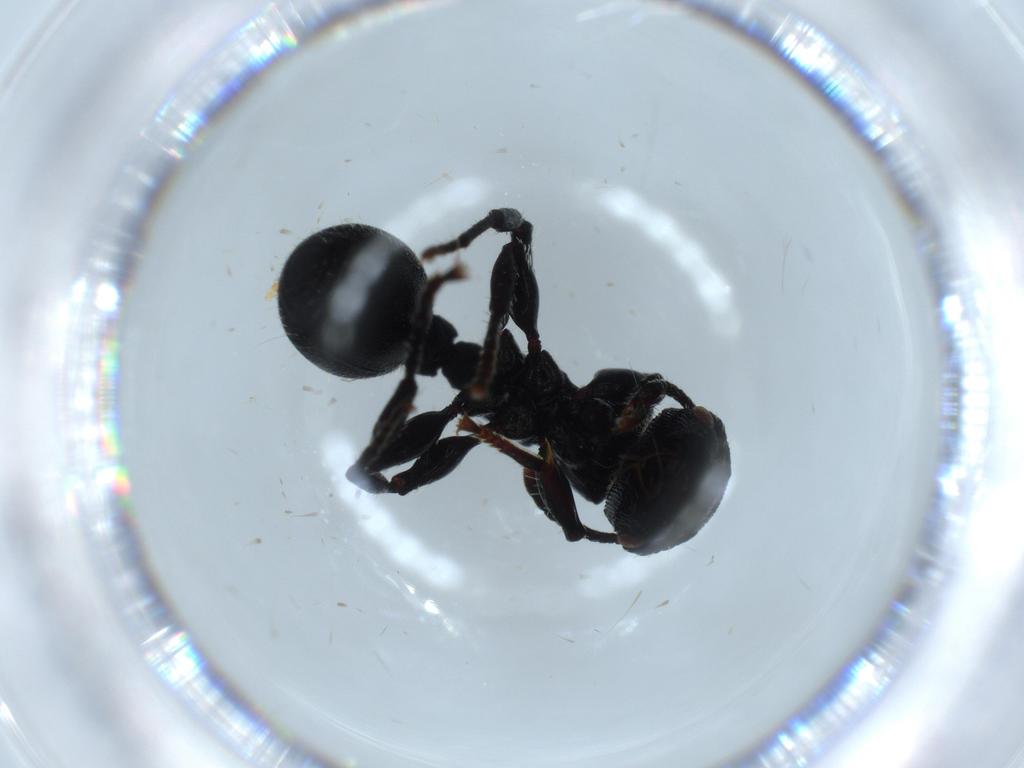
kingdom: Animalia
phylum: Arthropoda
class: Insecta
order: Hymenoptera
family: Formicidae
